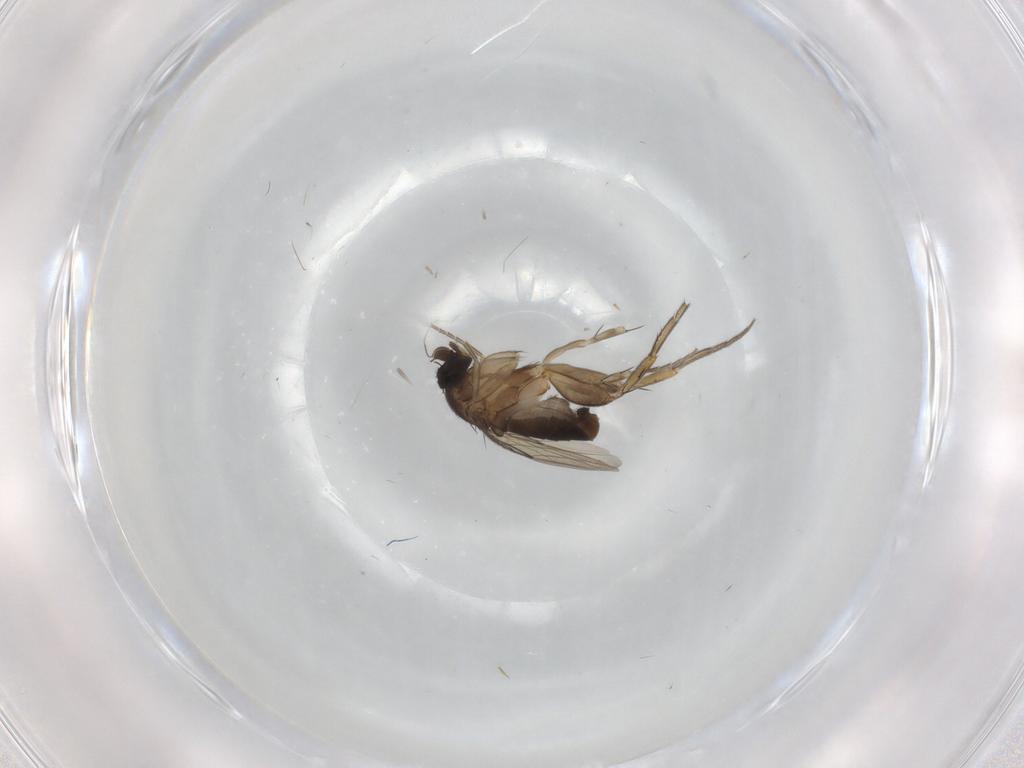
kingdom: Animalia
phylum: Arthropoda
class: Insecta
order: Diptera
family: Phoridae
